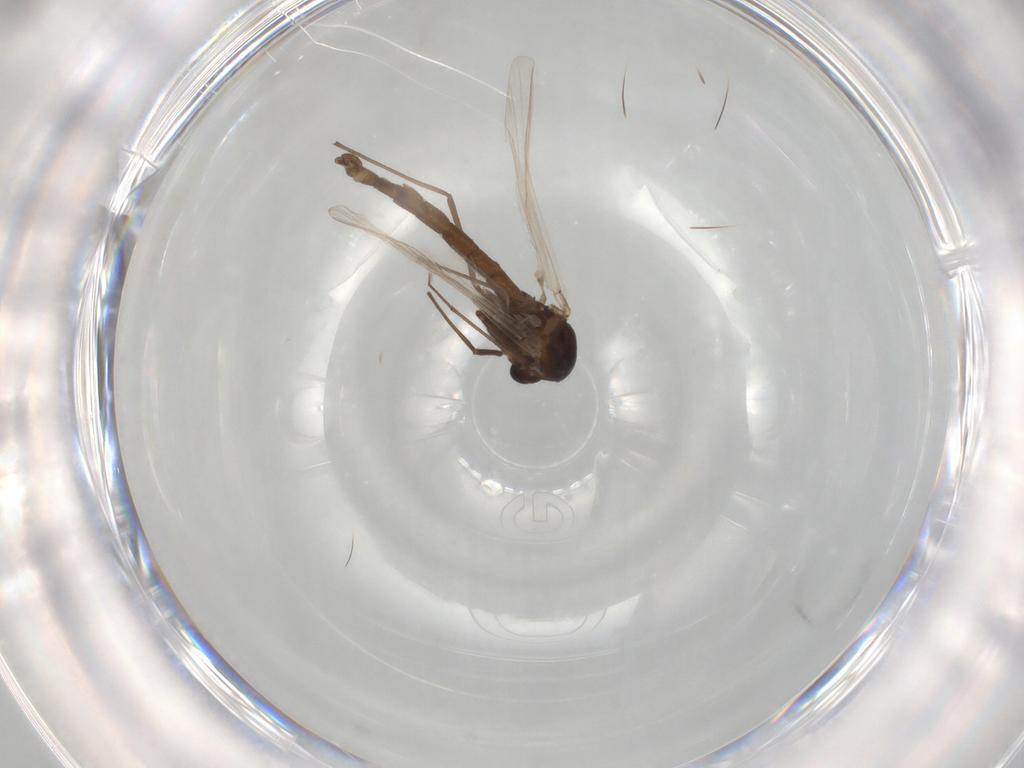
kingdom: Animalia
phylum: Arthropoda
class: Insecta
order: Diptera
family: Chironomidae
